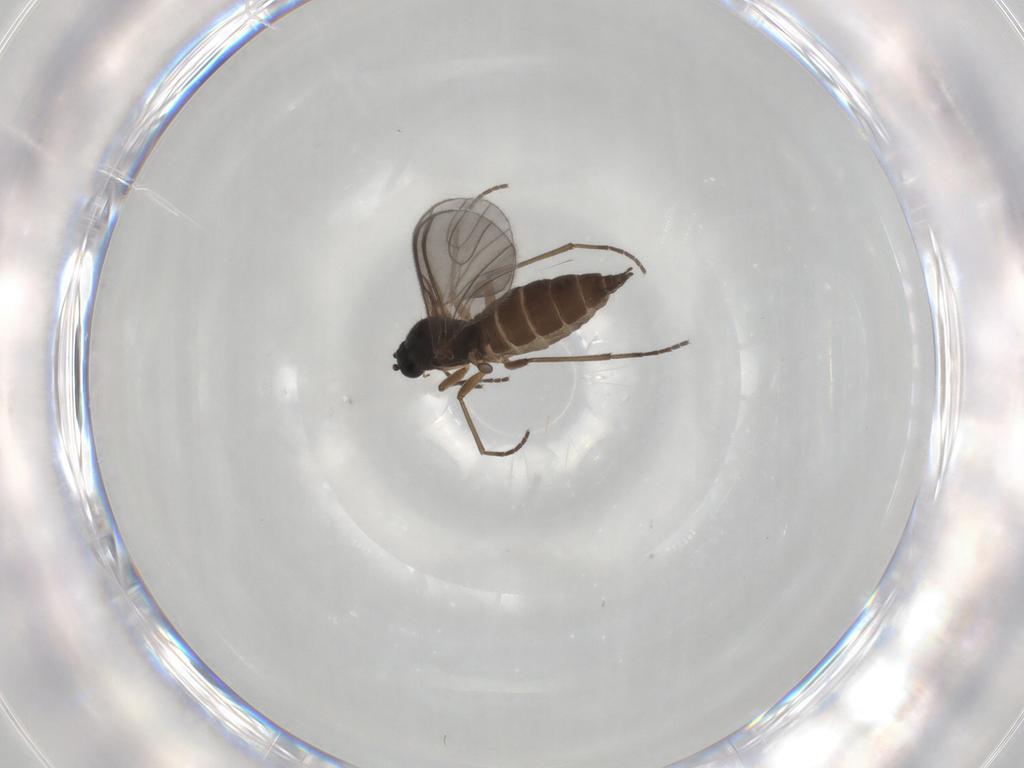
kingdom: Animalia
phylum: Arthropoda
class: Insecta
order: Diptera
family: Sciaridae
